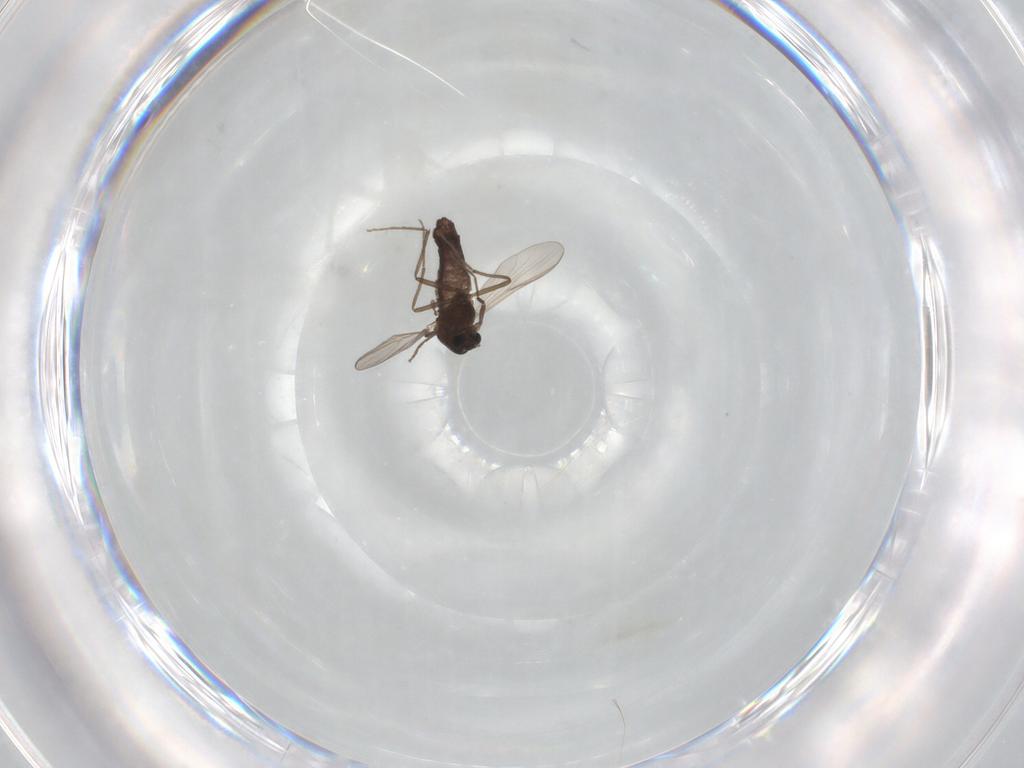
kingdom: Animalia
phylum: Arthropoda
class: Insecta
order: Diptera
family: Chironomidae
